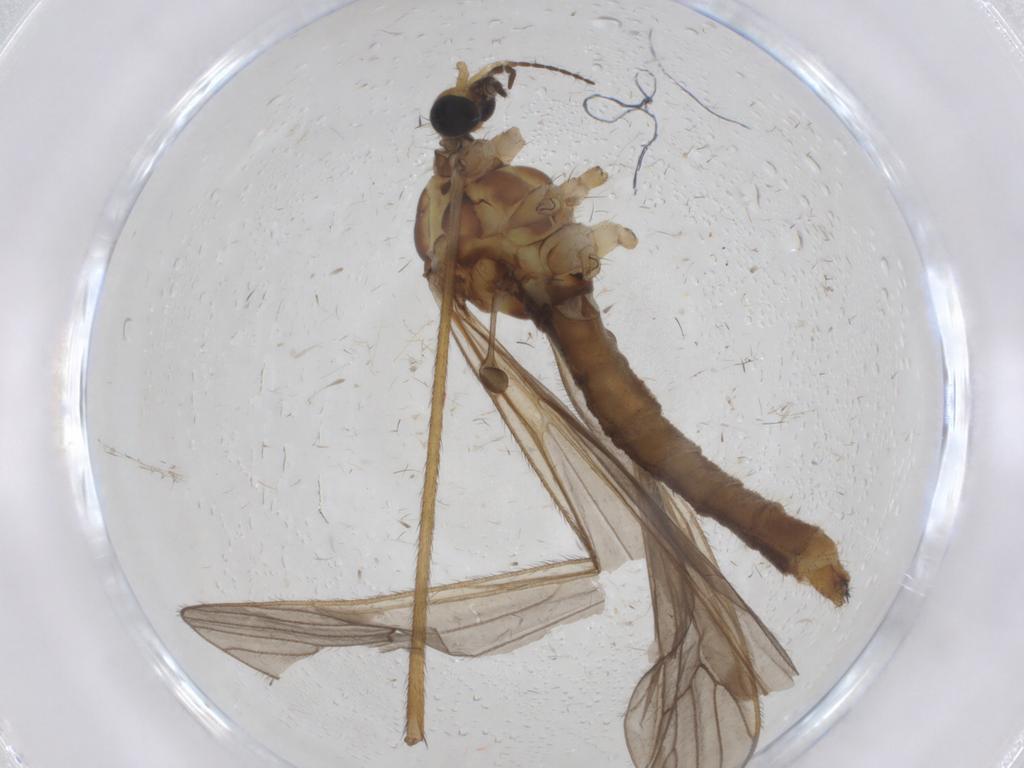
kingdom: Animalia
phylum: Arthropoda
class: Insecta
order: Diptera
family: Limoniidae
